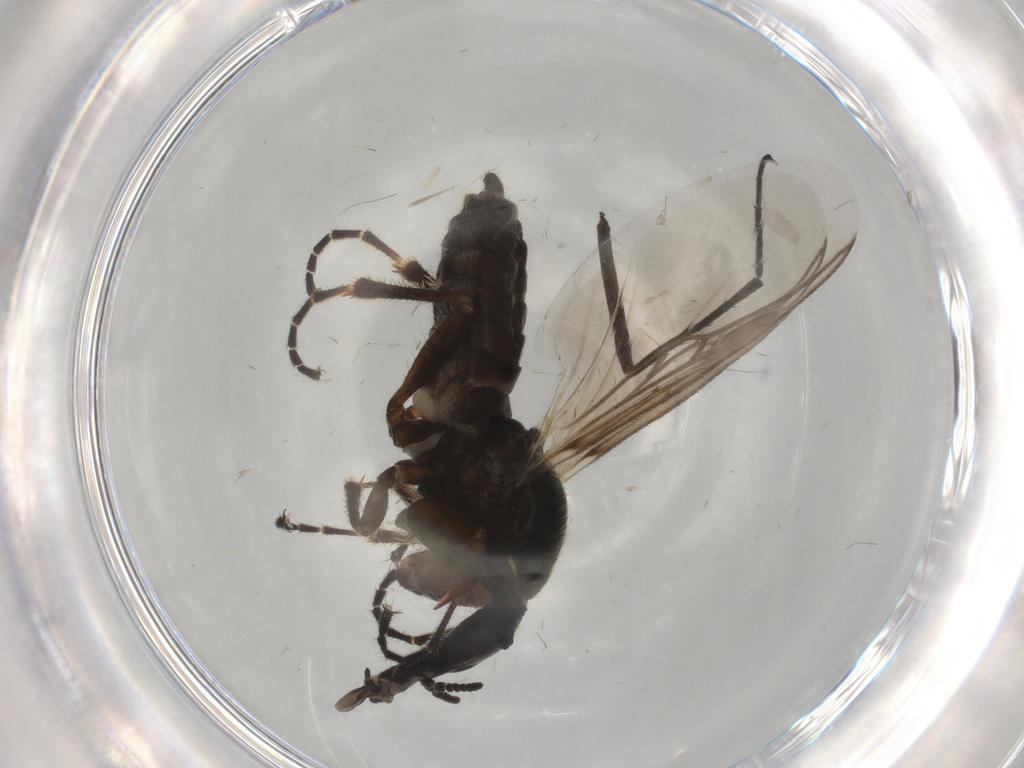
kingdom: Animalia
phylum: Arthropoda
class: Insecta
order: Diptera
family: Bibionidae
